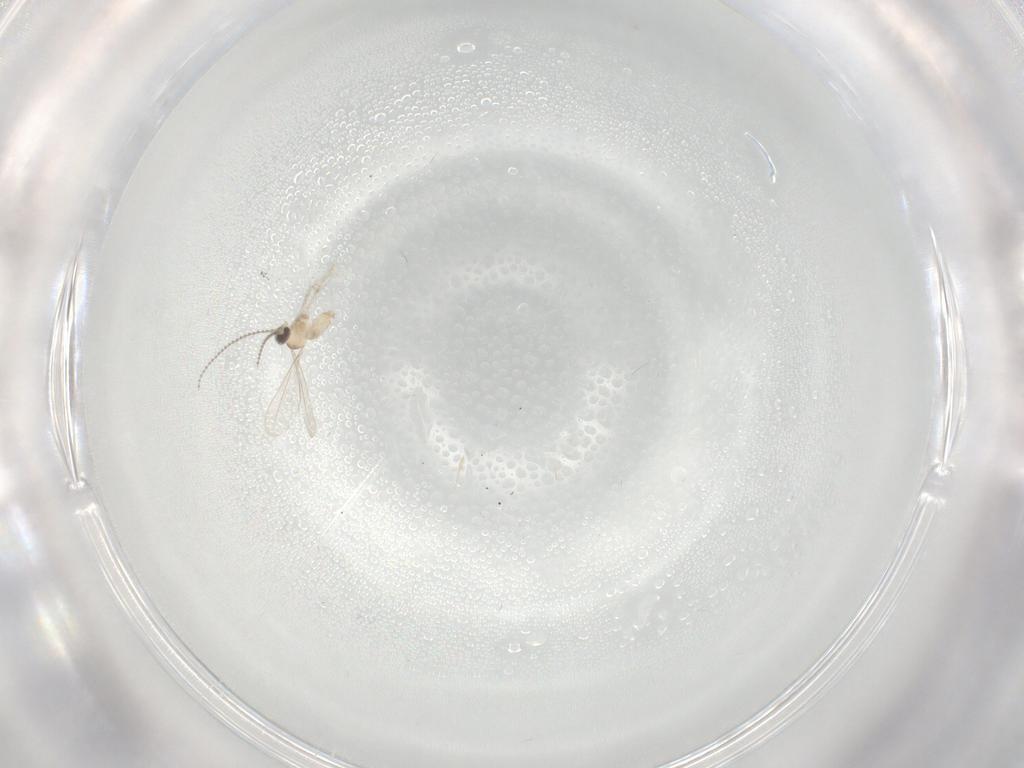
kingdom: Animalia
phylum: Arthropoda
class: Insecta
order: Diptera
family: Cecidomyiidae
